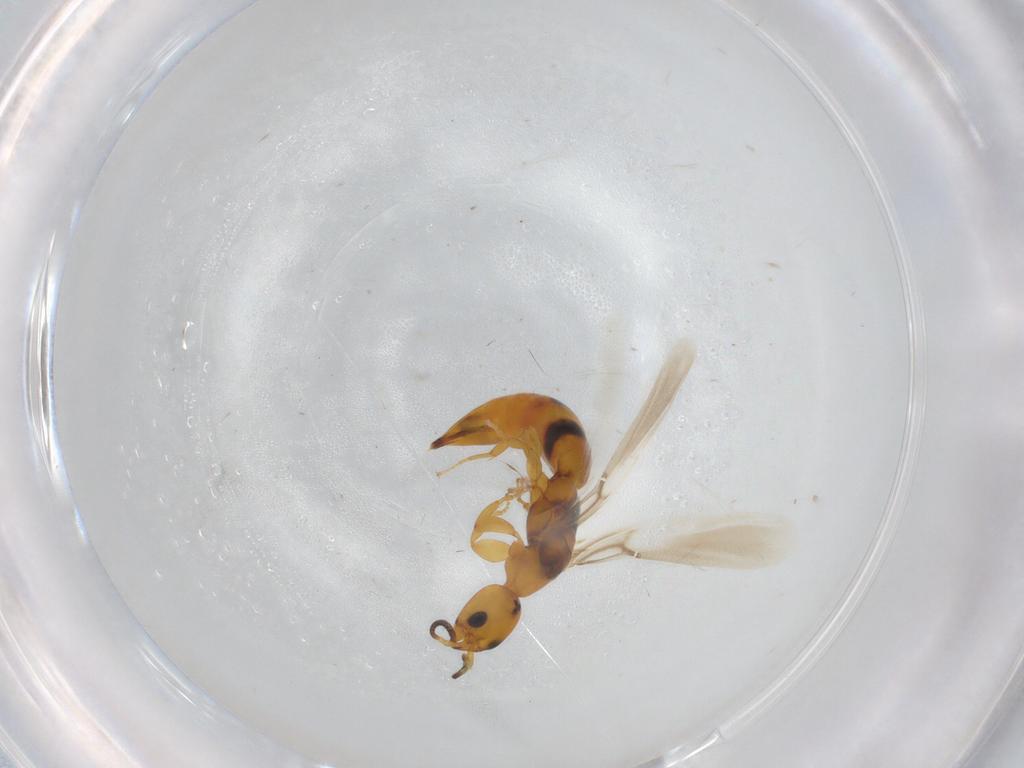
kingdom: Animalia
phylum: Arthropoda
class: Insecta
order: Hymenoptera
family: Bethylidae
